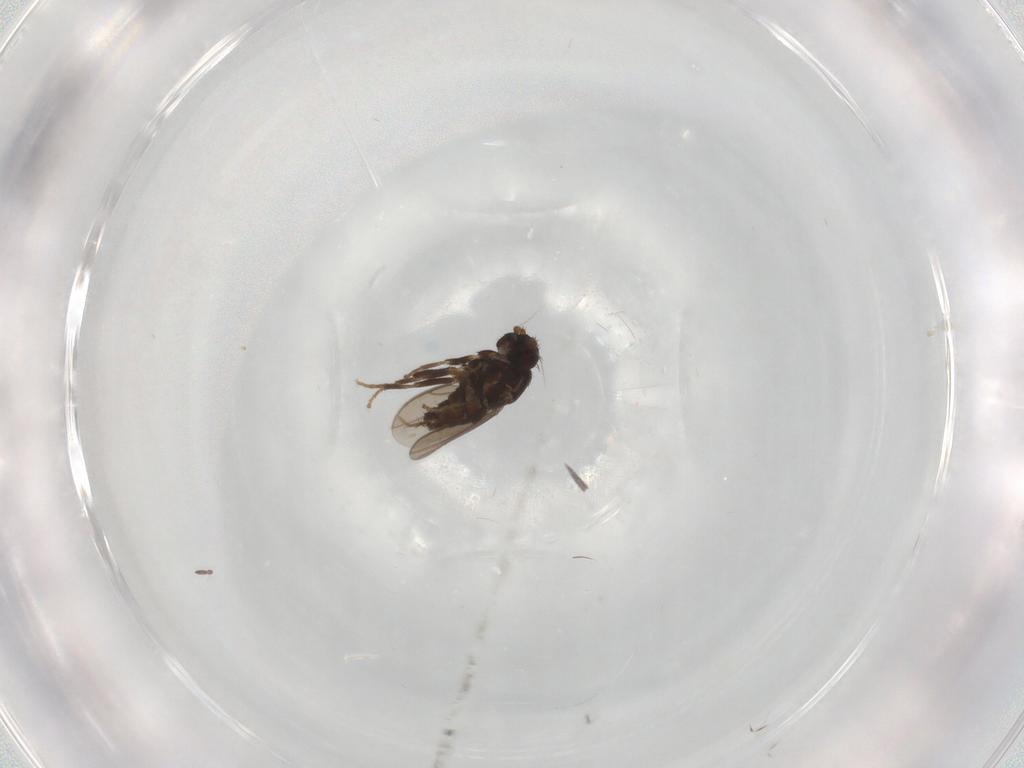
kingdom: Animalia
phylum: Arthropoda
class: Insecta
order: Diptera
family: Sphaeroceridae
